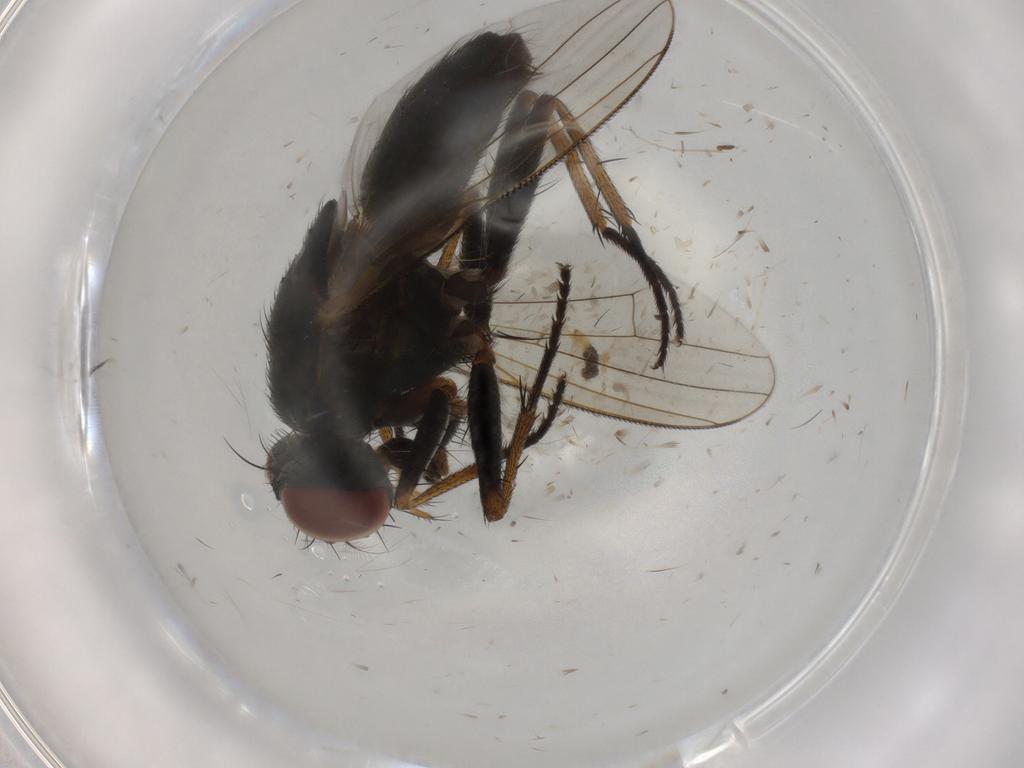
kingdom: Animalia
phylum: Arthropoda
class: Insecta
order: Diptera
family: Muscidae
